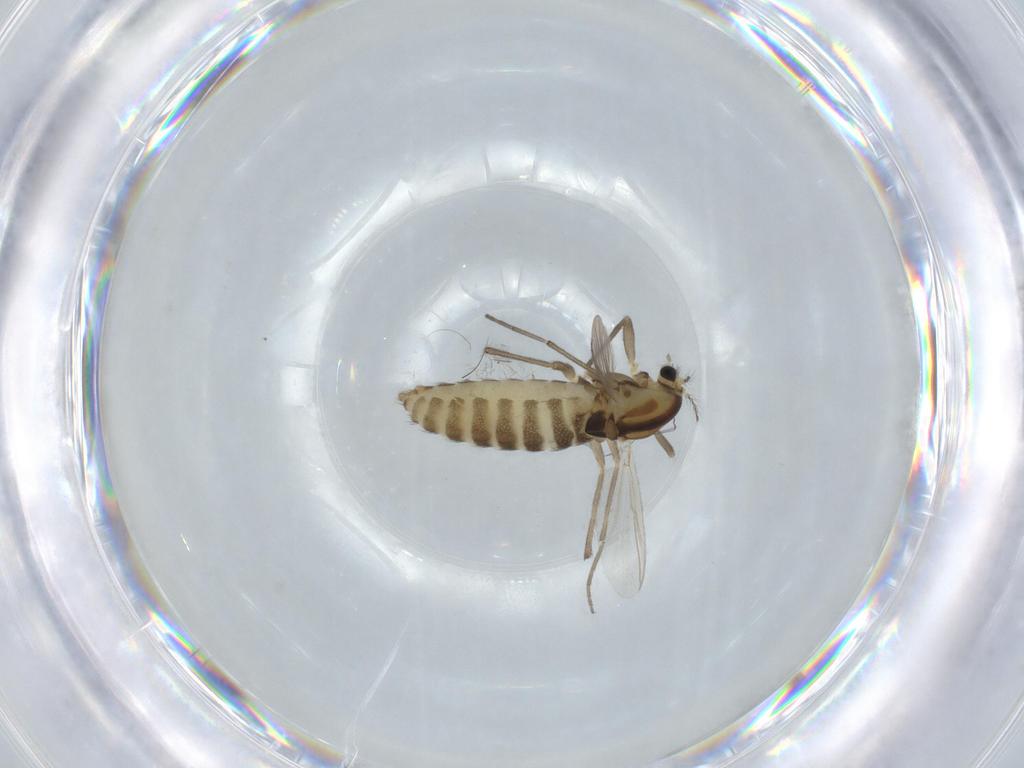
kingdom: Animalia
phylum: Arthropoda
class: Insecta
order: Diptera
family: Chironomidae
